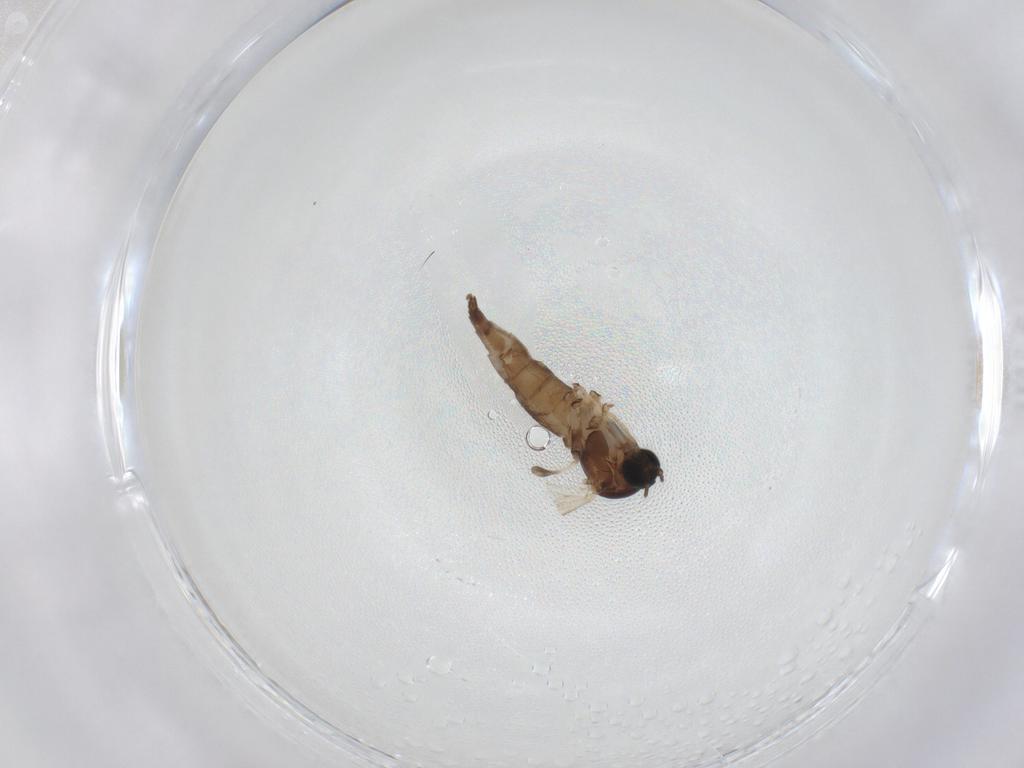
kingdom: Animalia
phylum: Arthropoda
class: Insecta
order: Diptera
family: Sciaridae
